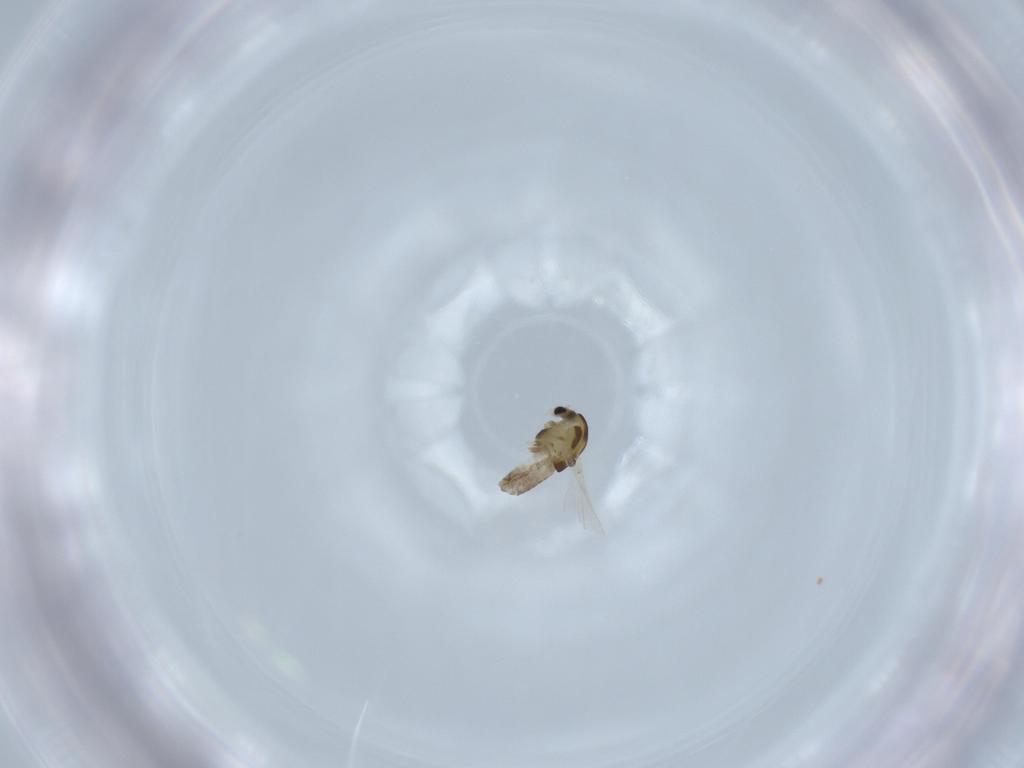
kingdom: Animalia
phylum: Arthropoda
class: Insecta
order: Diptera
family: Chironomidae
